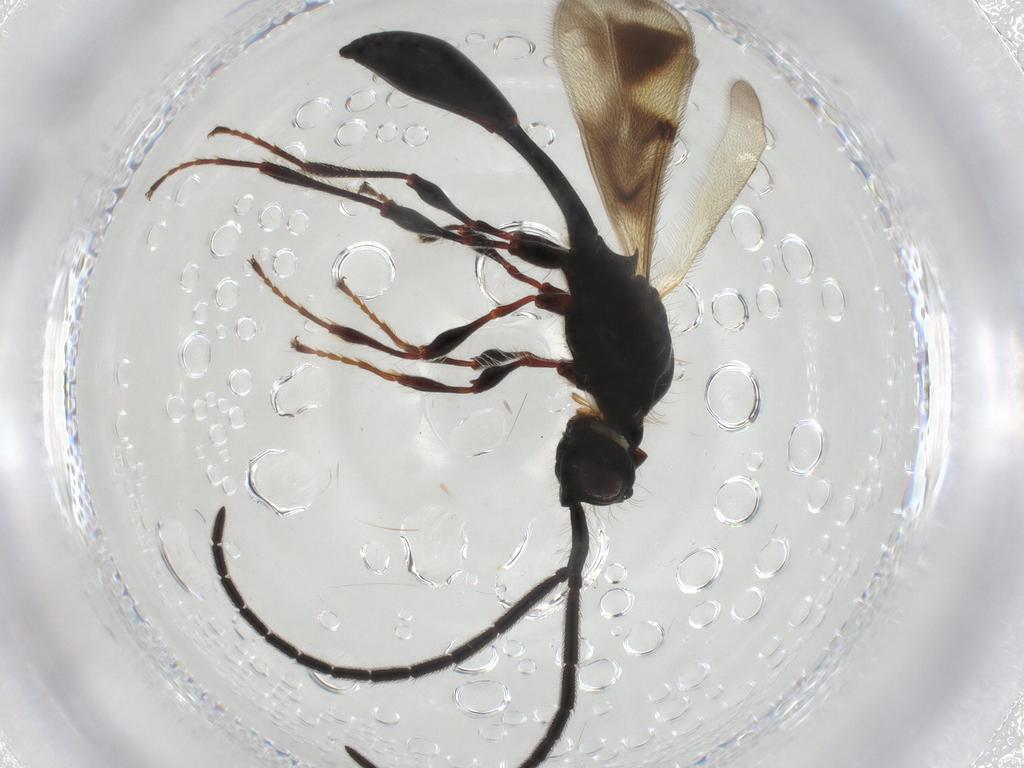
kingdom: Animalia
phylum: Arthropoda
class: Insecta
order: Hymenoptera
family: Diapriidae
